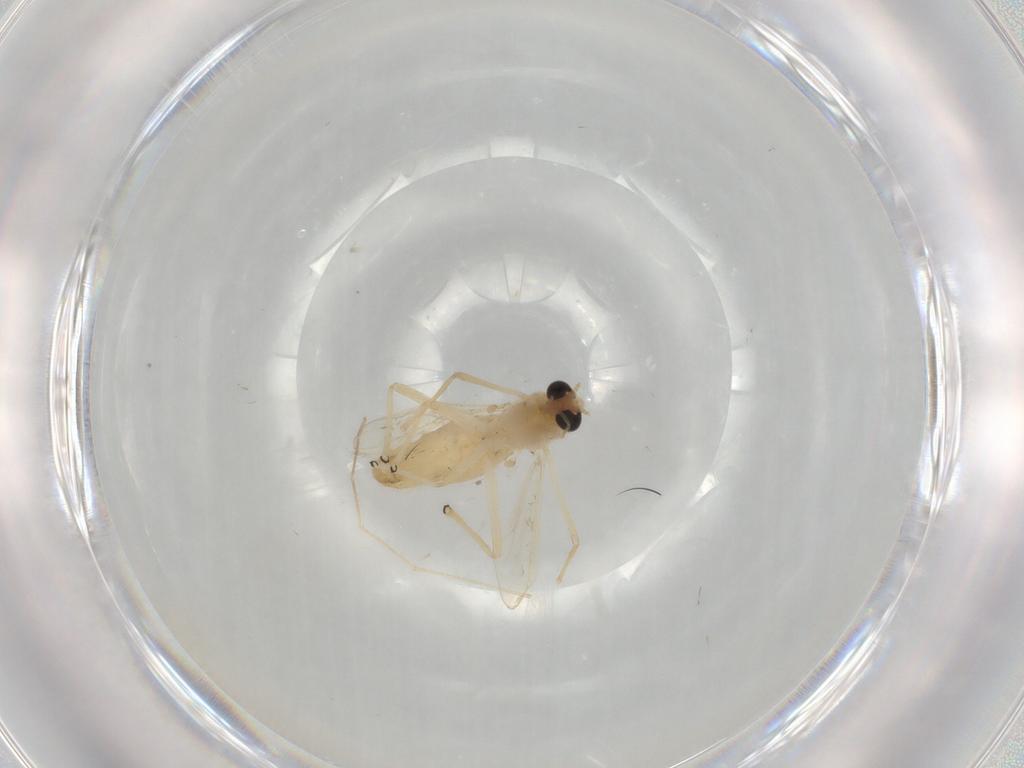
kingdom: Animalia
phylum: Arthropoda
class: Insecta
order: Diptera
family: Chironomidae
